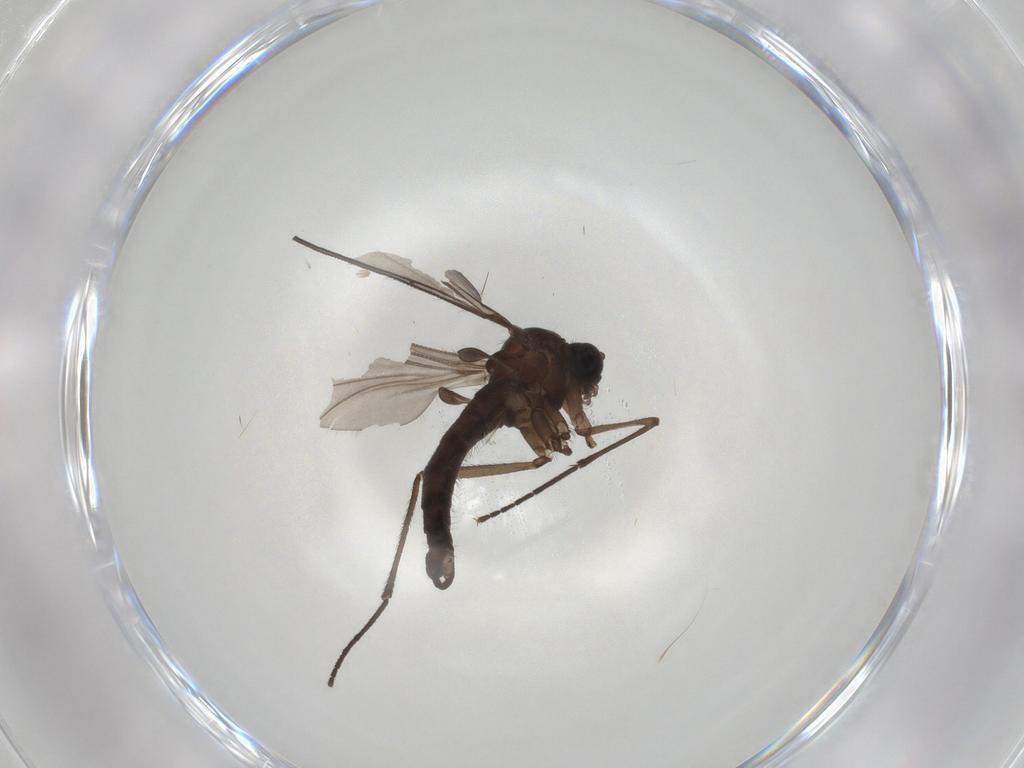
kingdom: Animalia
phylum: Arthropoda
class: Insecta
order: Diptera
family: Sciaridae
